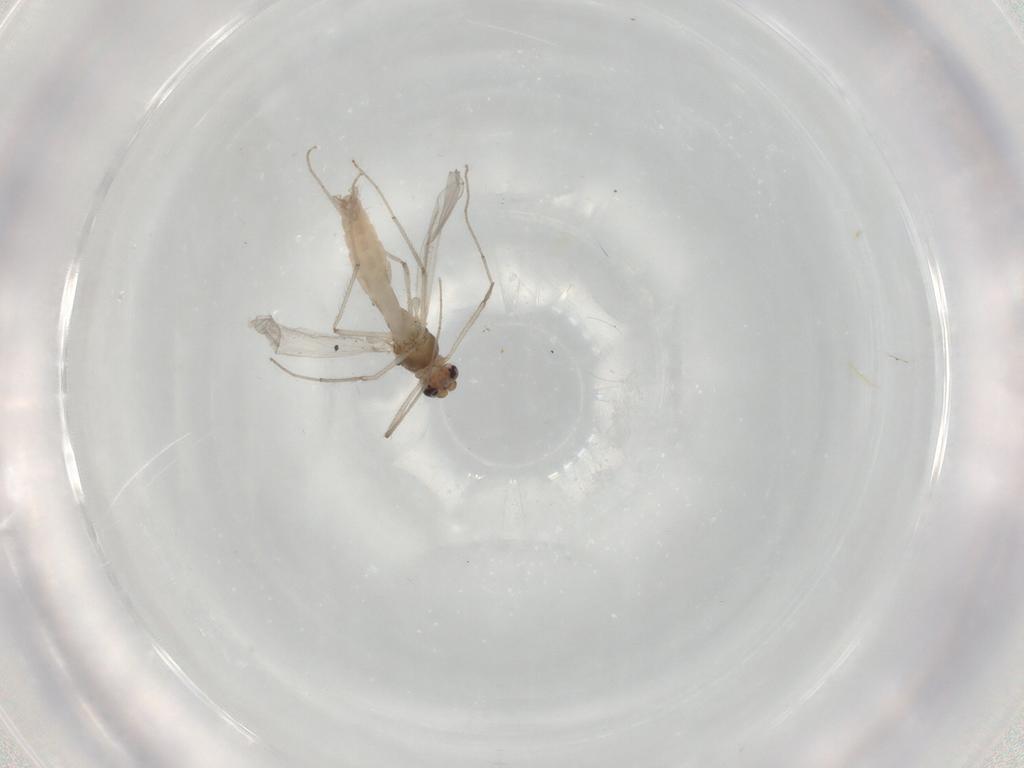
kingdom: Animalia
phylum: Arthropoda
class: Insecta
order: Diptera
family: Chironomidae
